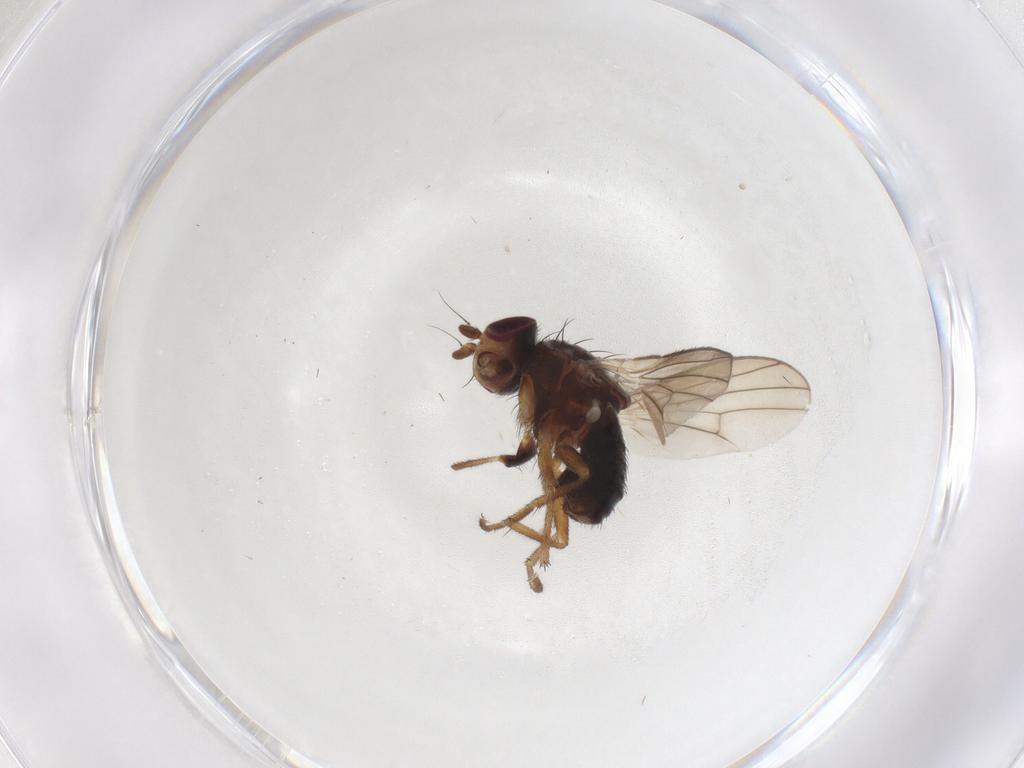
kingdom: Animalia
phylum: Arthropoda
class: Insecta
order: Diptera
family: Heleomyzidae
